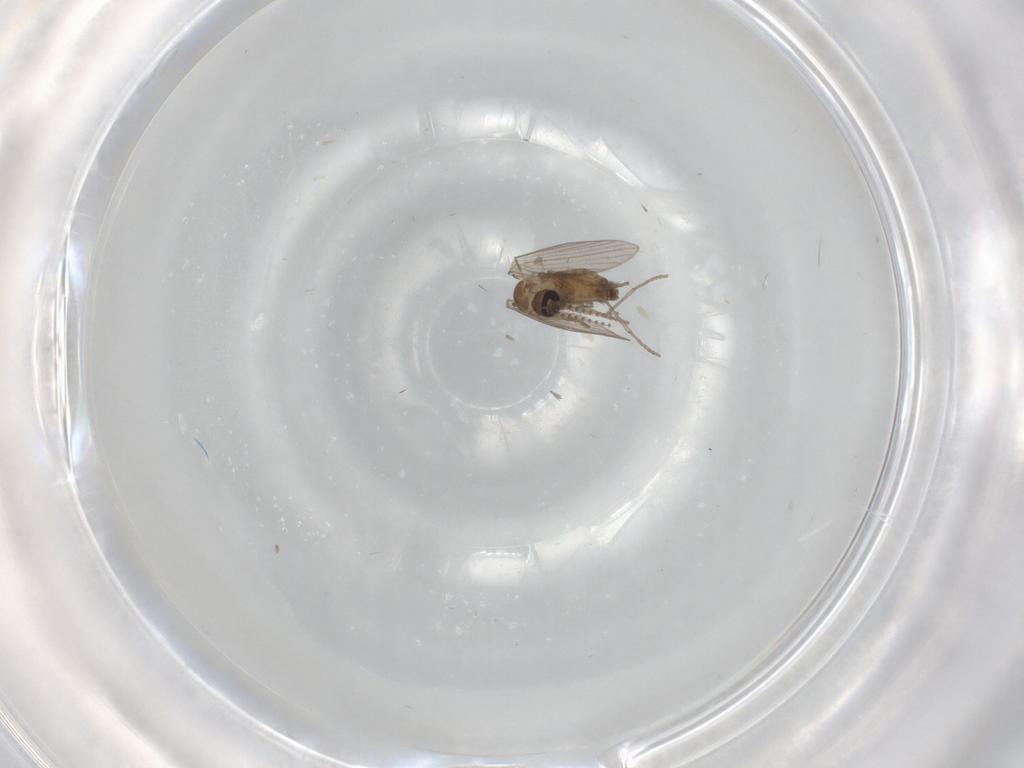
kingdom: Animalia
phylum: Arthropoda
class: Insecta
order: Diptera
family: Psychodidae
